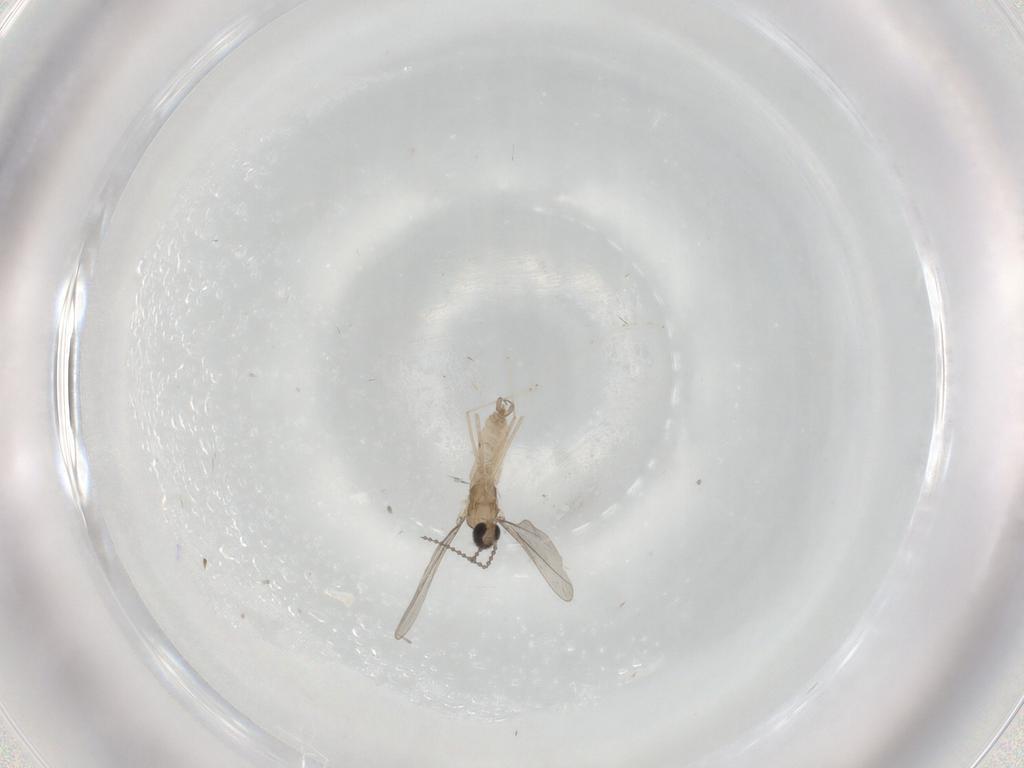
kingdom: Animalia
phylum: Arthropoda
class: Insecta
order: Diptera
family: Cecidomyiidae
